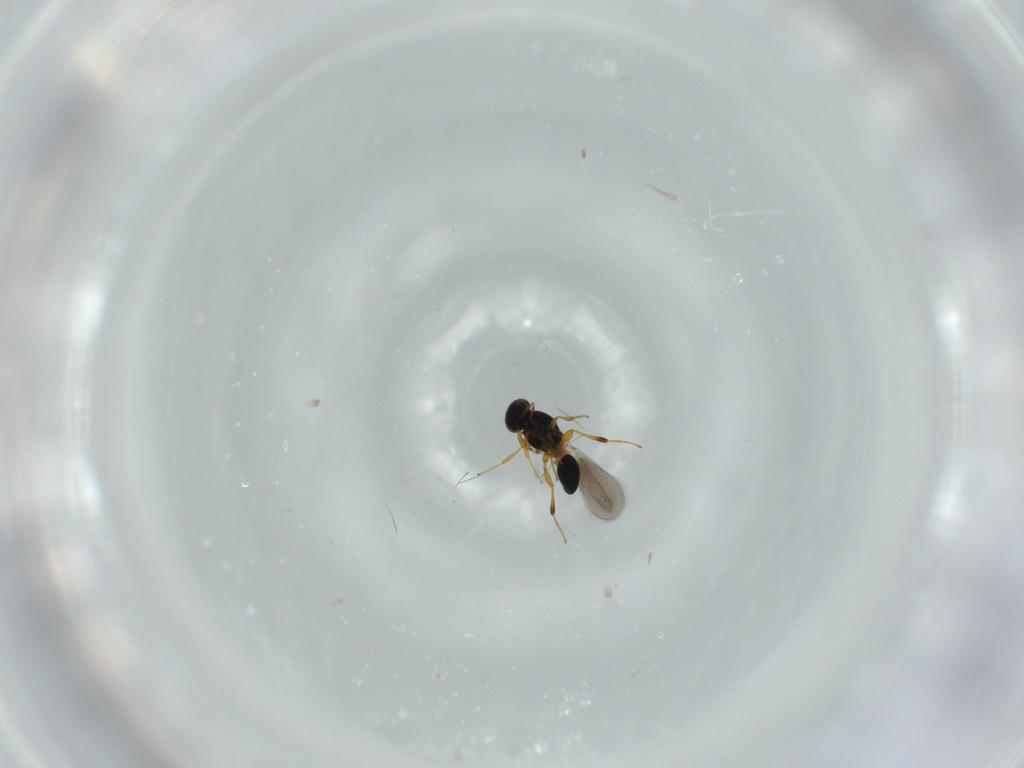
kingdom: Animalia
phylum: Arthropoda
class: Insecta
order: Hymenoptera
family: Platygastridae
